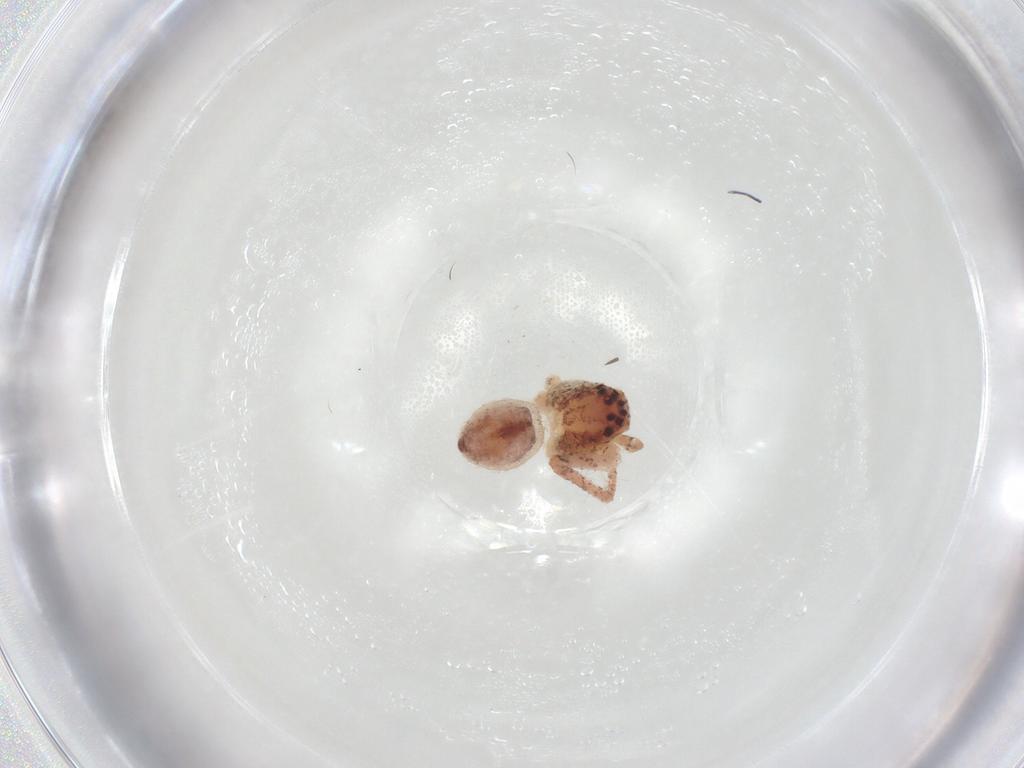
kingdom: Animalia
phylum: Arthropoda
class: Arachnida
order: Araneae
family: Philodromidae
